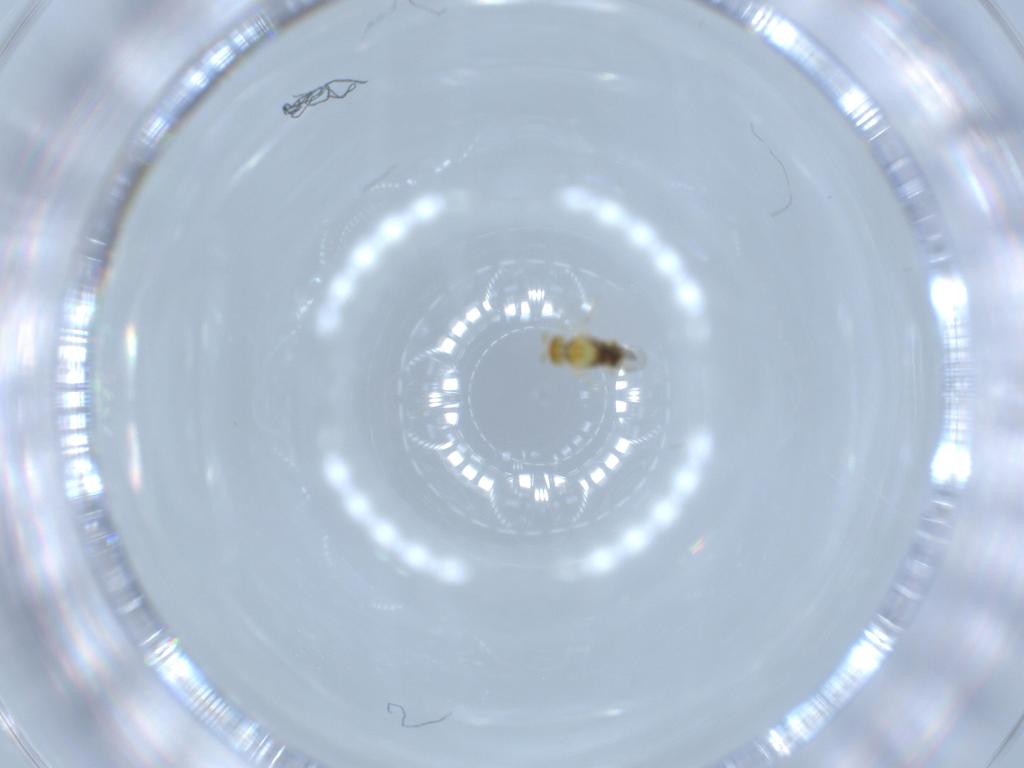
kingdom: Animalia
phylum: Arthropoda
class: Insecta
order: Hymenoptera
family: Aphelinidae
